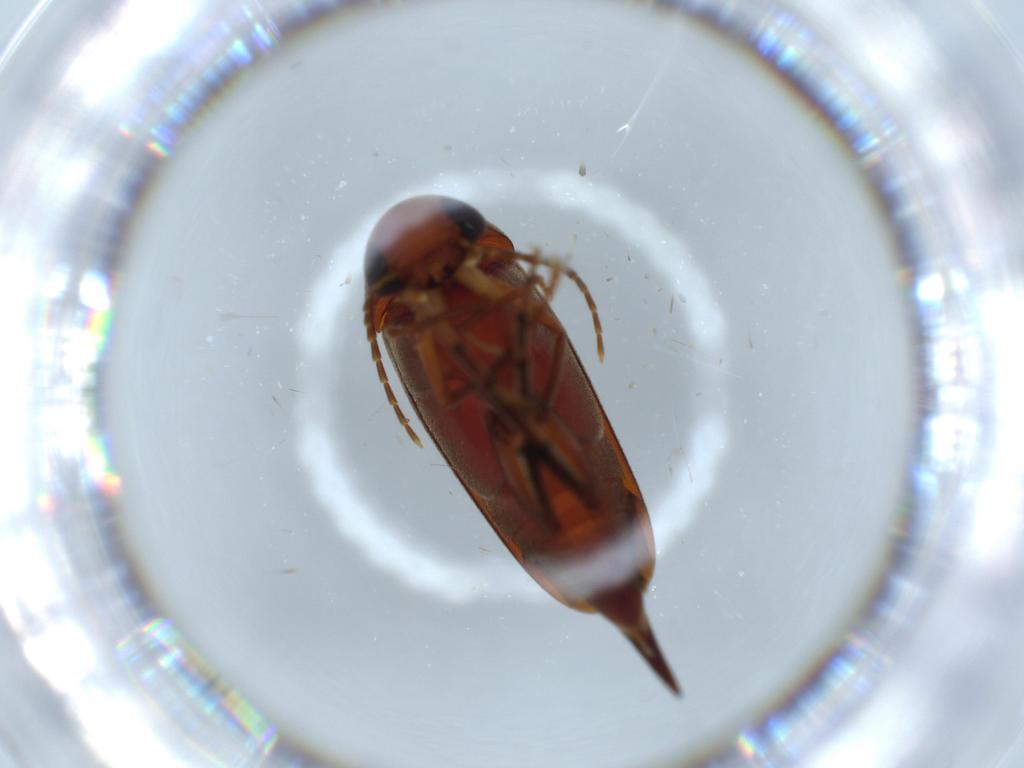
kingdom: Animalia
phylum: Arthropoda
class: Insecta
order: Coleoptera
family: Mordellidae
